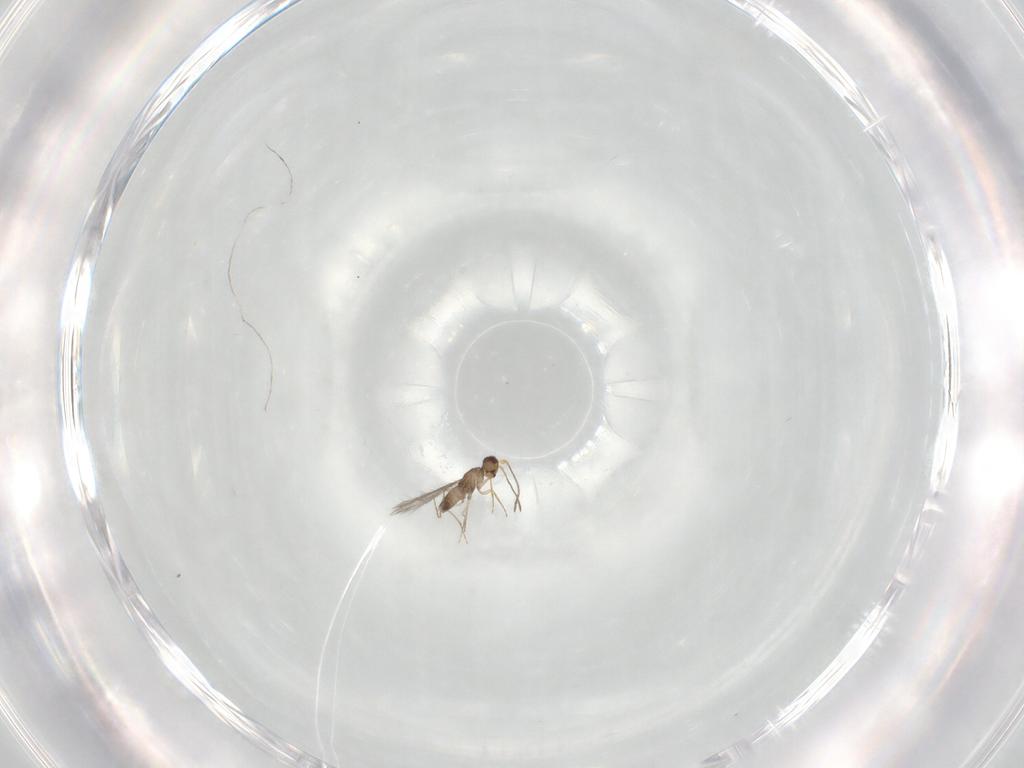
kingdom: Animalia
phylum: Arthropoda
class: Insecta
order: Hymenoptera
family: Mymaridae
